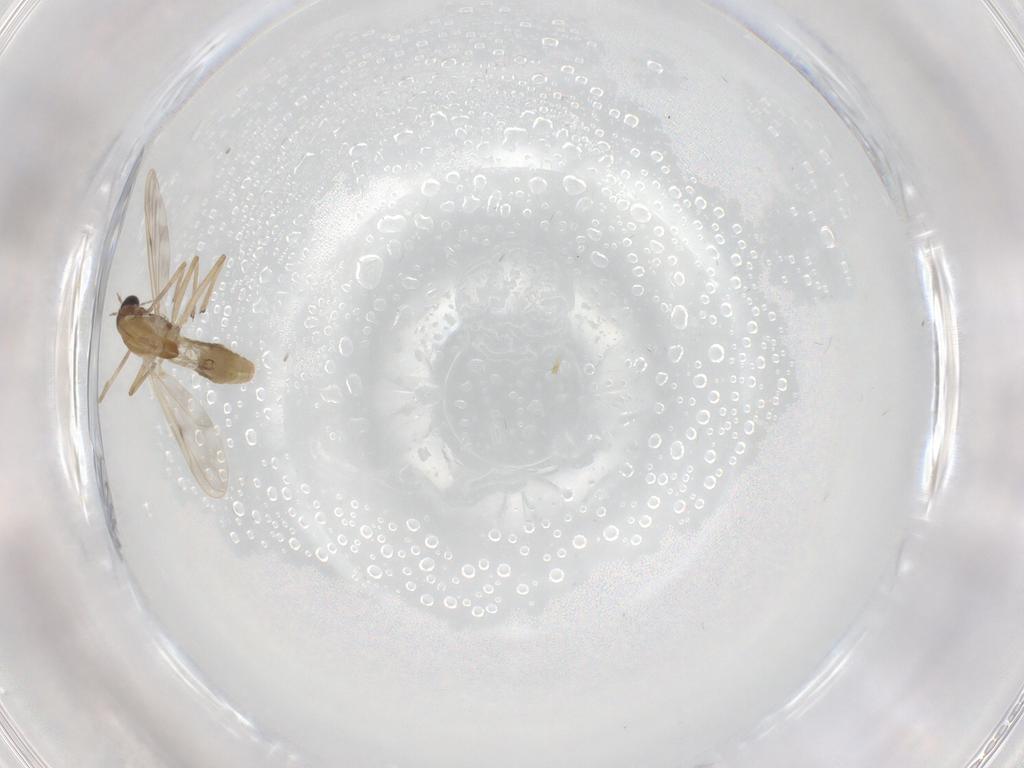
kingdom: Animalia
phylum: Arthropoda
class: Insecta
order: Diptera
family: Chironomidae
